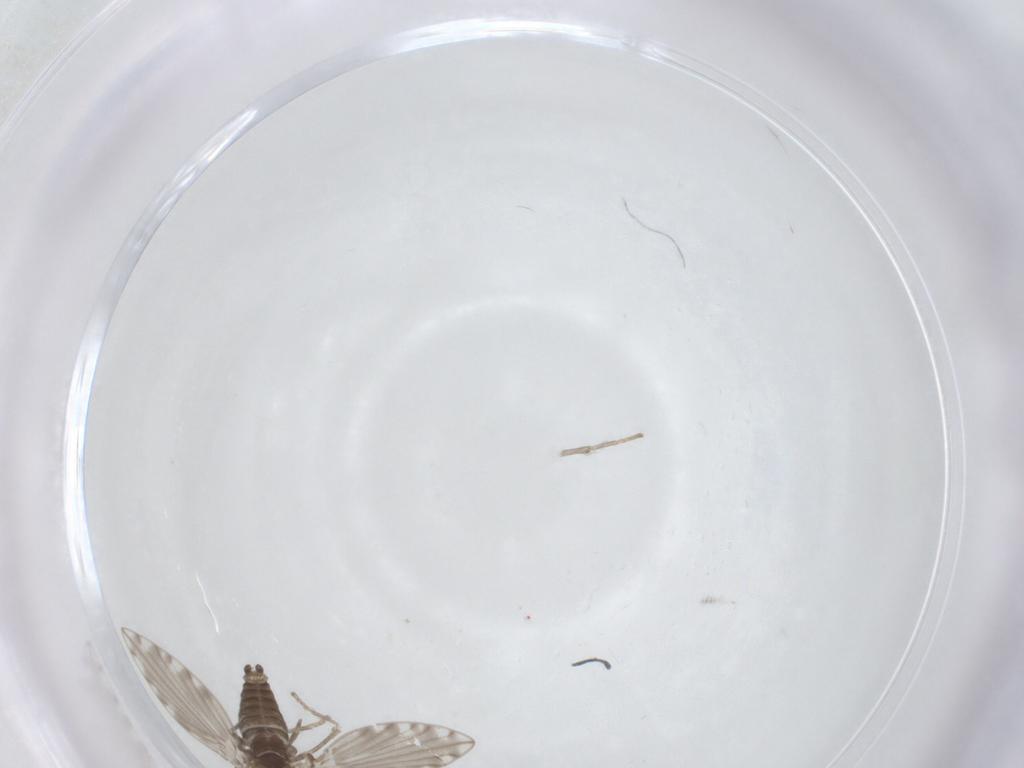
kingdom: Animalia
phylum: Arthropoda
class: Insecta
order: Diptera
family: Psychodidae
